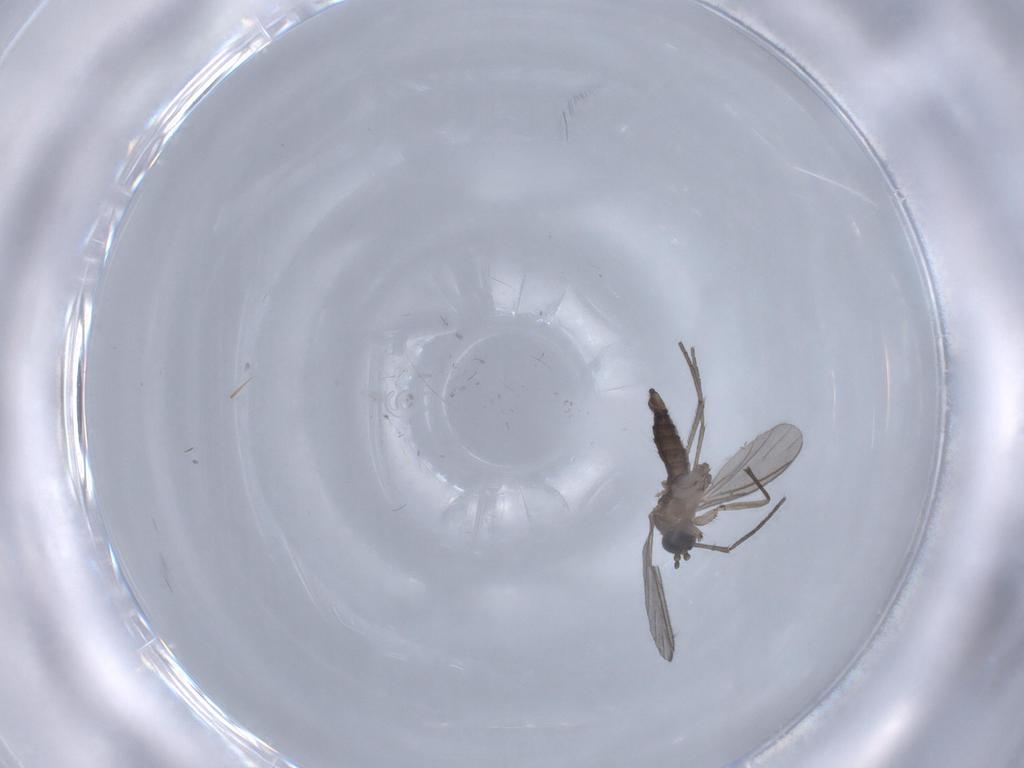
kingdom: Animalia
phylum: Arthropoda
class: Insecta
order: Diptera
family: Sciaridae
